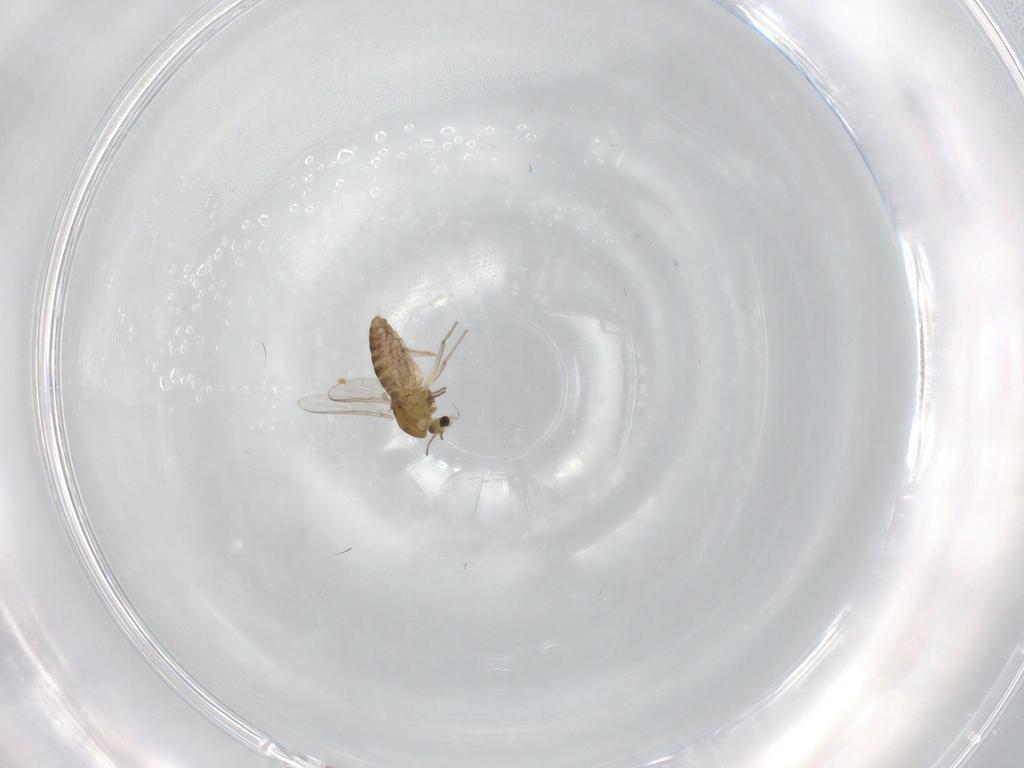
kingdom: Animalia
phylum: Arthropoda
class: Insecta
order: Diptera
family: Chironomidae
